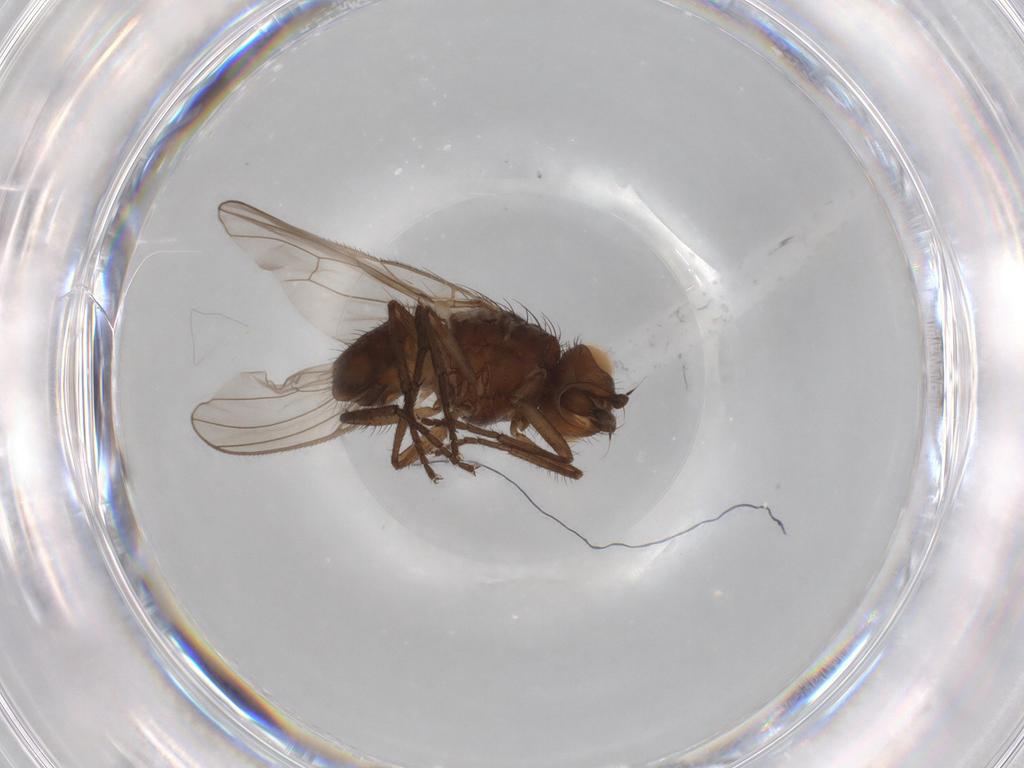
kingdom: Animalia
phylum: Arthropoda
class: Insecta
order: Diptera
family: Anthomyiidae
